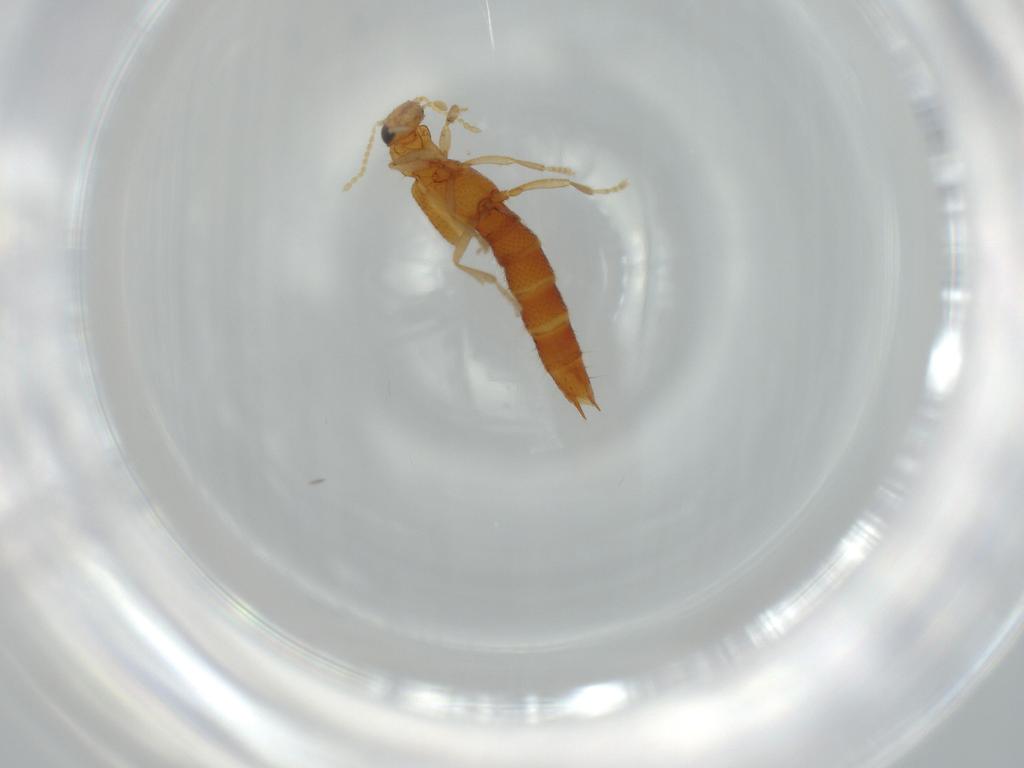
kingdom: Animalia
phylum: Arthropoda
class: Insecta
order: Coleoptera
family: Staphylinidae
